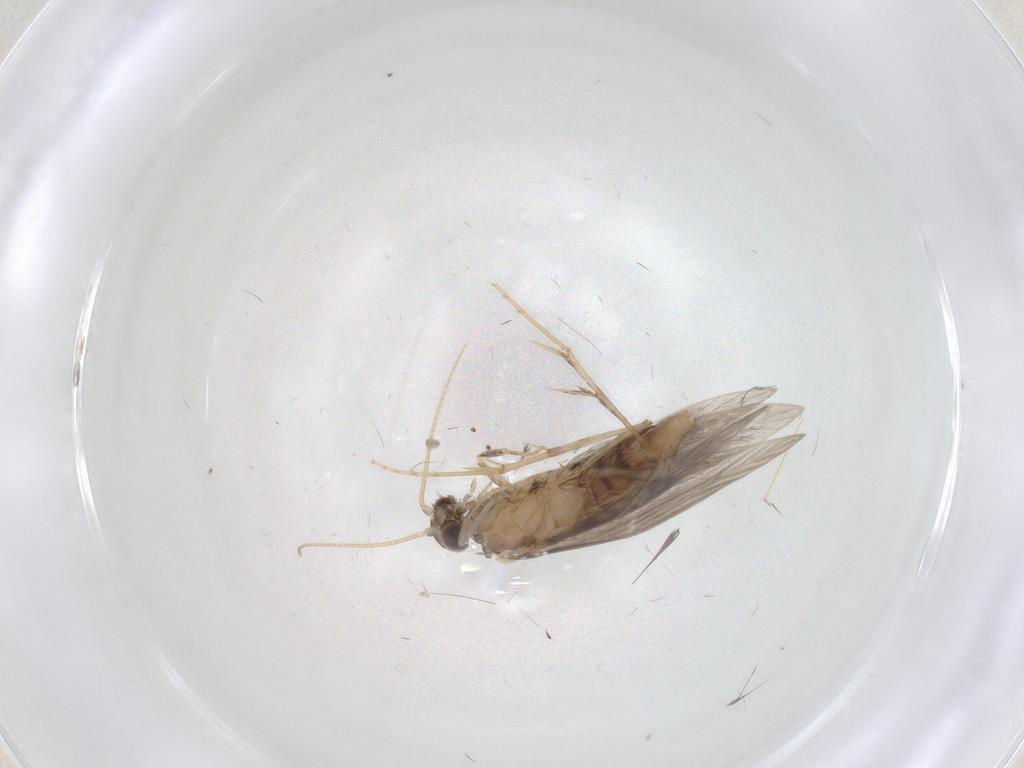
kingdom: Animalia
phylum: Arthropoda
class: Insecta
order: Trichoptera
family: Hydroptilidae
